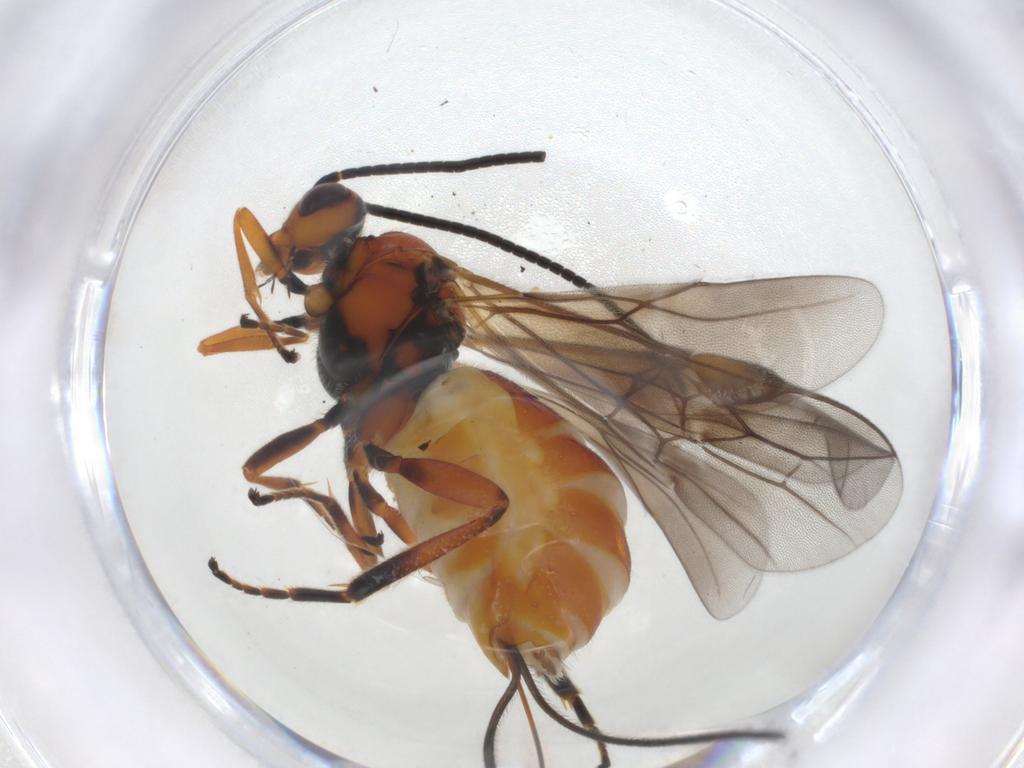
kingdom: Animalia
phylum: Arthropoda
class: Insecta
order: Hymenoptera
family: Braconidae
